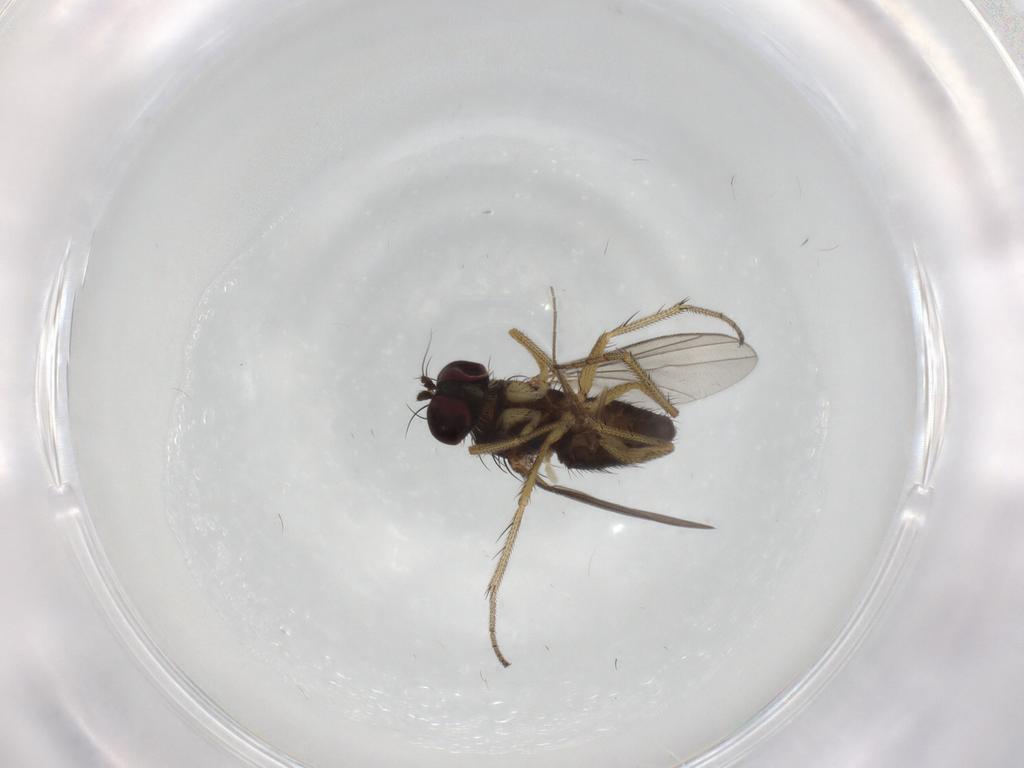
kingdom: Animalia
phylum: Arthropoda
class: Insecta
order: Diptera
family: Chironomidae
